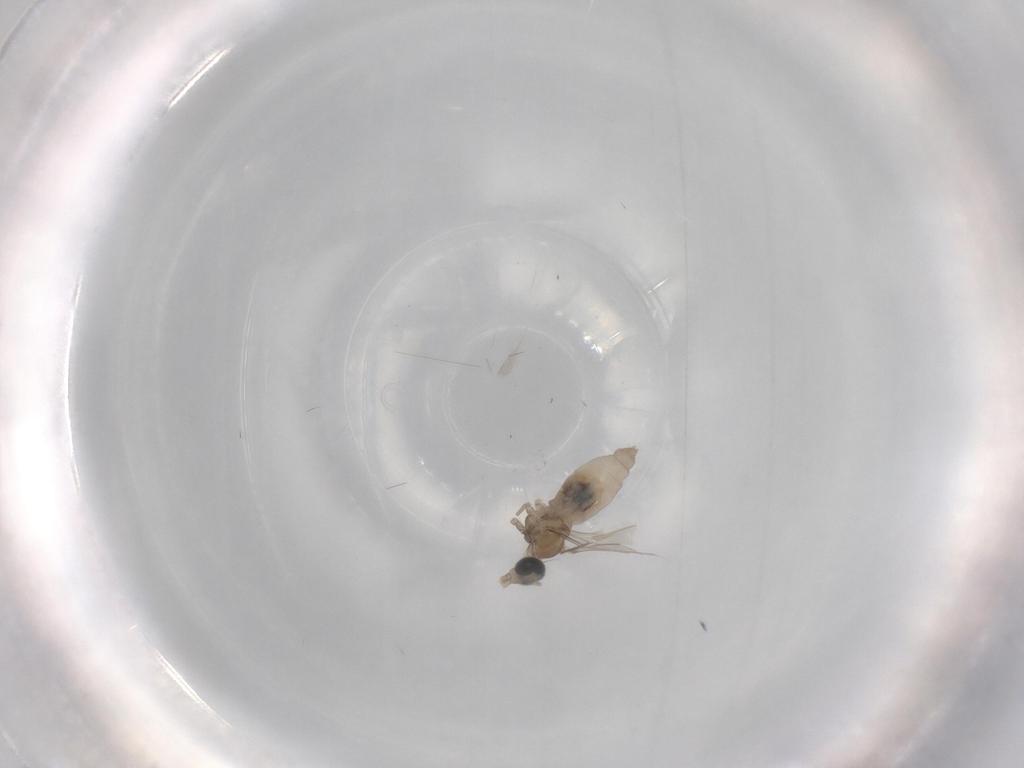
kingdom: Animalia
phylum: Arthropoda
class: Insecta
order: Diptera
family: Cecidomyiidae
